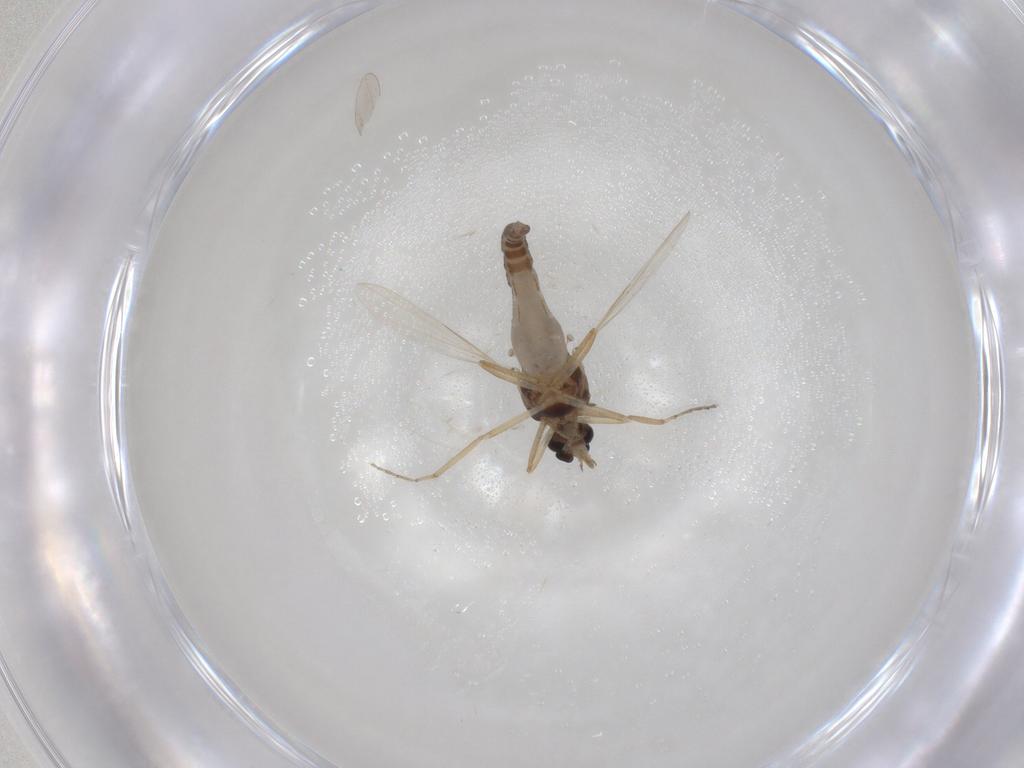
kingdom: Animalia
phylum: Arthropoda
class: Insecta
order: Diptera
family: Ceratopogonidae
